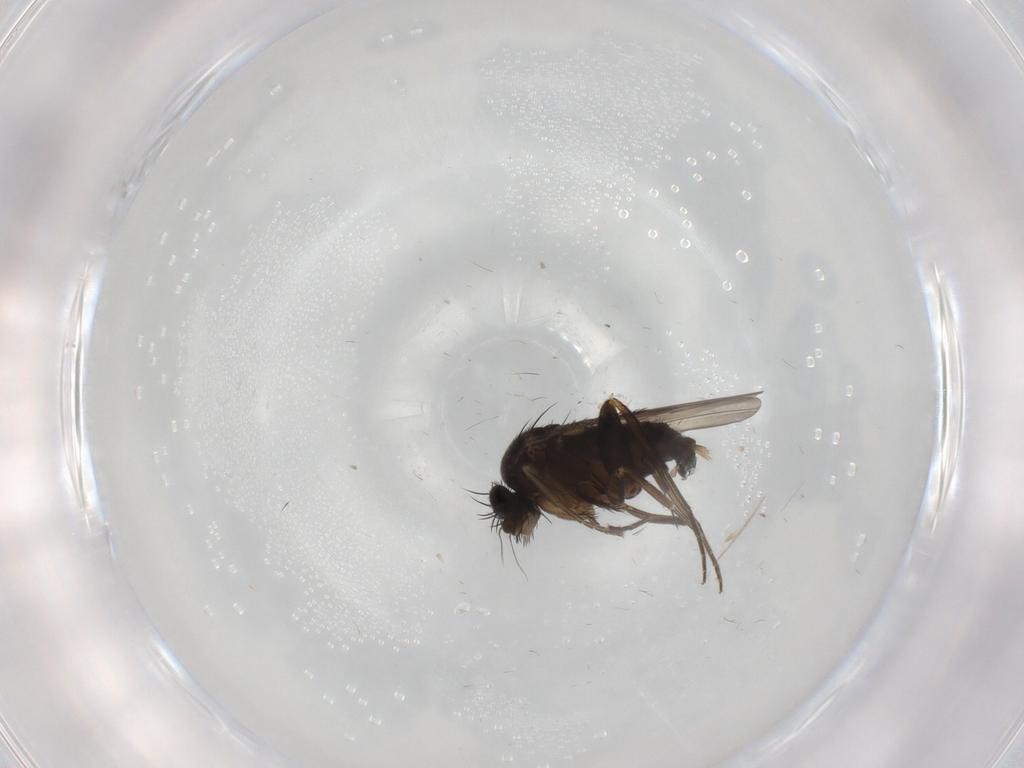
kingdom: Animalia
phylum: Arthropoda
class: Insecta
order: Diptera
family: Phoridae
